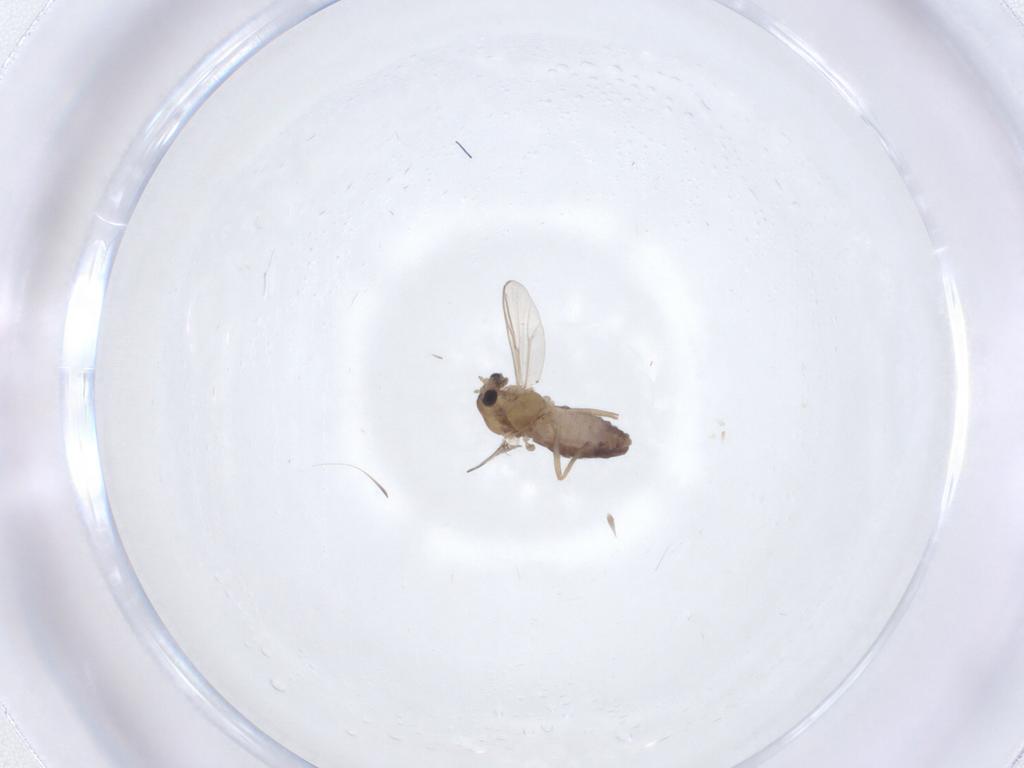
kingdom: Animalia
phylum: Arthropoda
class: Insecta
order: Diptera
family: Chironomidae
